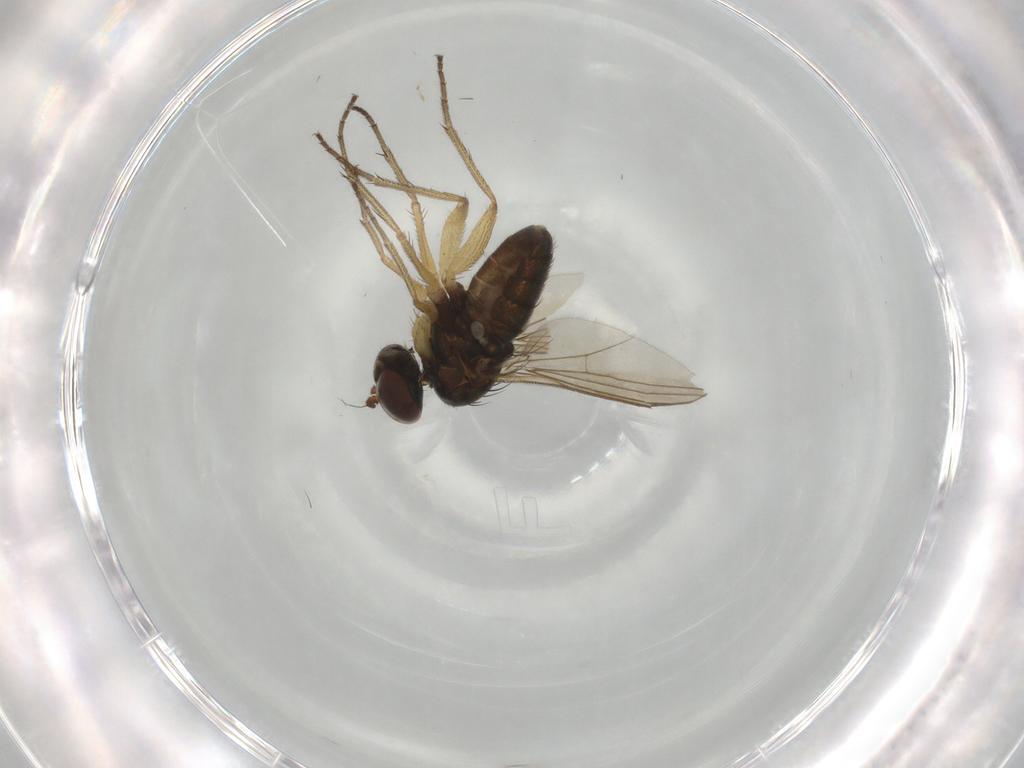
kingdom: Animalia
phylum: Arthropoda
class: Insecta
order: Diptera
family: Dolichopodidae
